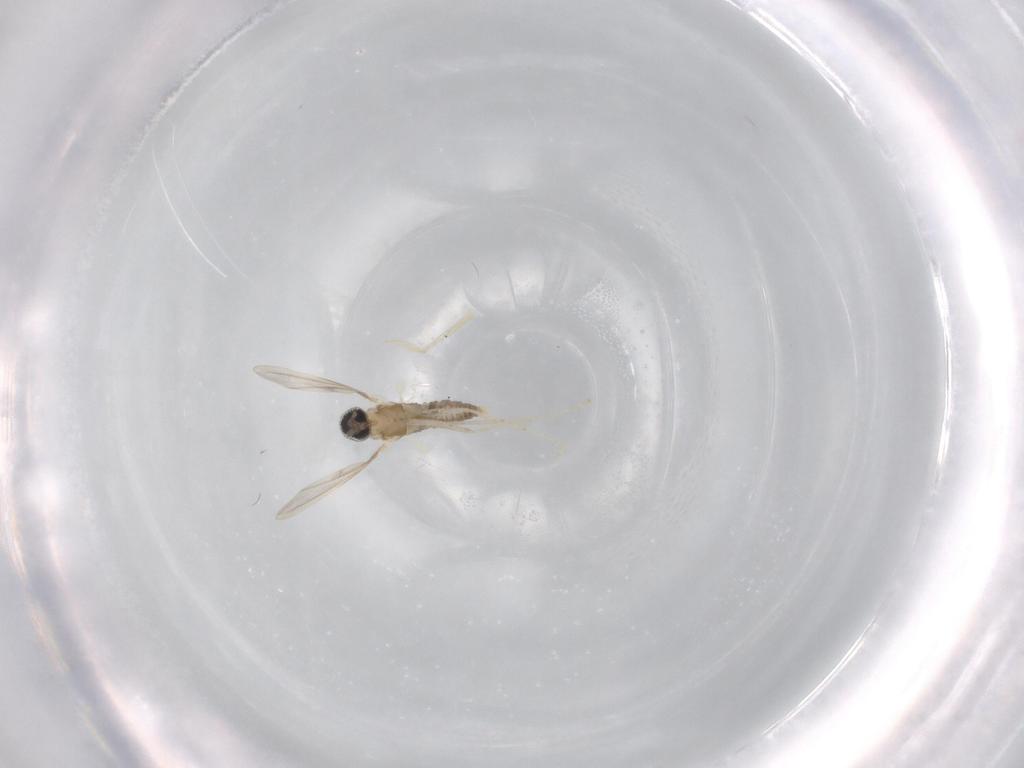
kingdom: Animalia
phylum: Arthropoda
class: Insecta
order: Diptera
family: Cecidomyiidae
